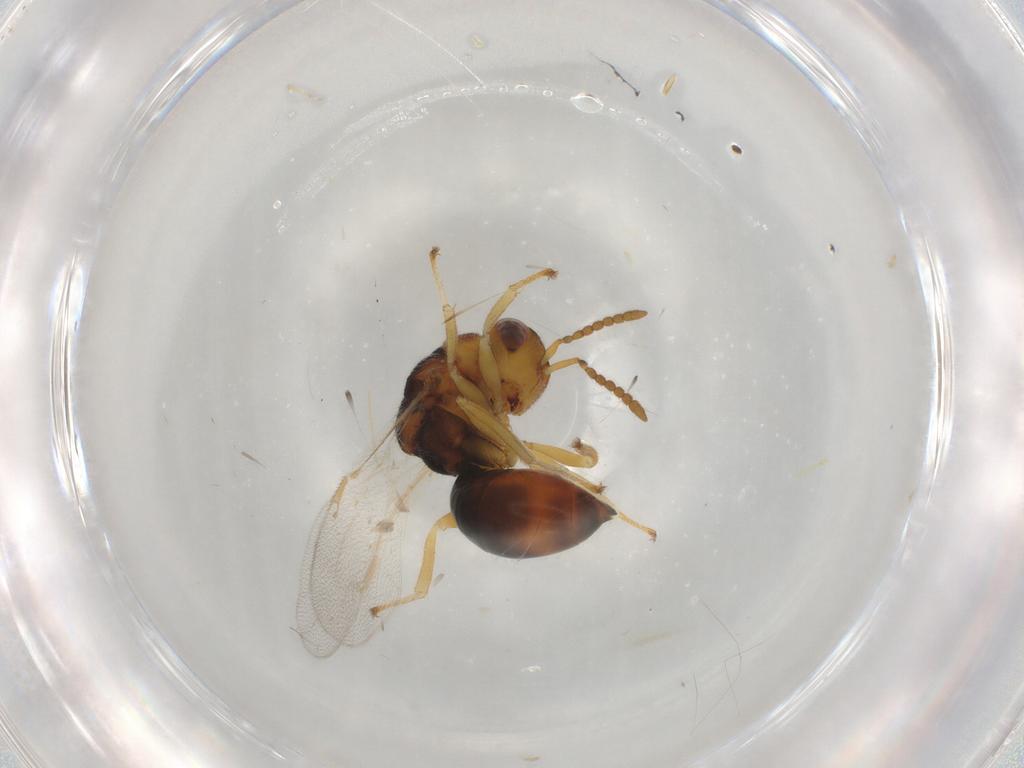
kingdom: Animalia
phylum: Arthropoda
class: Insecta
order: Hymenoptera
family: Eurytomidae
